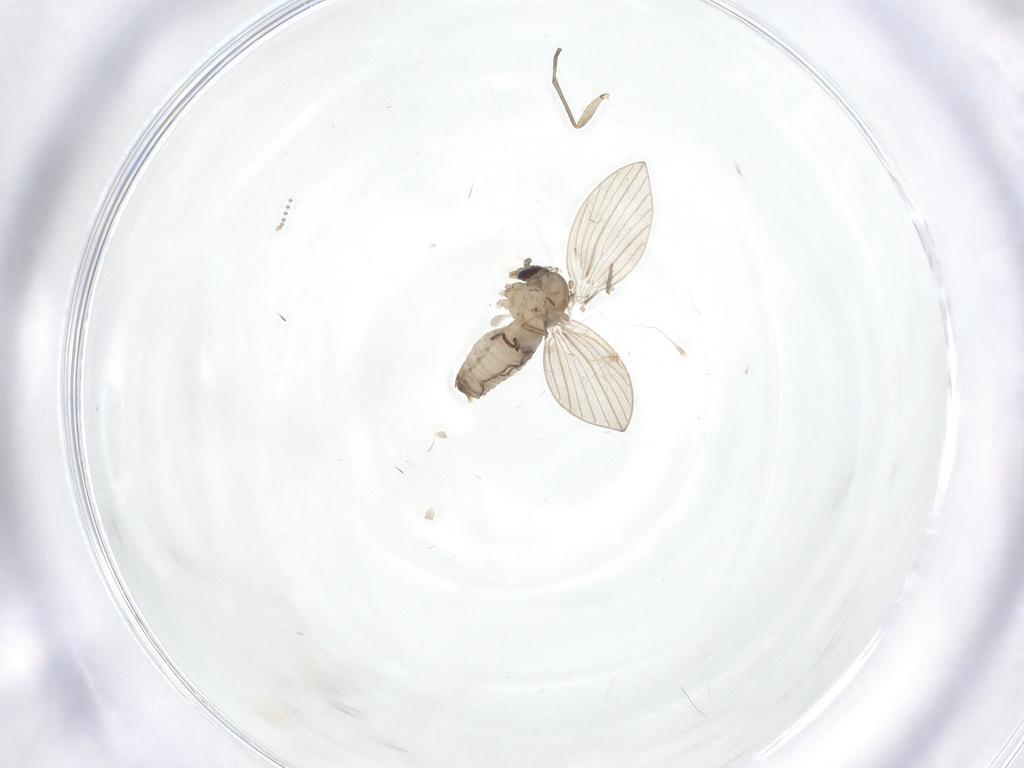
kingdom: Animalia
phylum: Arthropoda
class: Insecta
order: Diptera
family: Psychodidae
